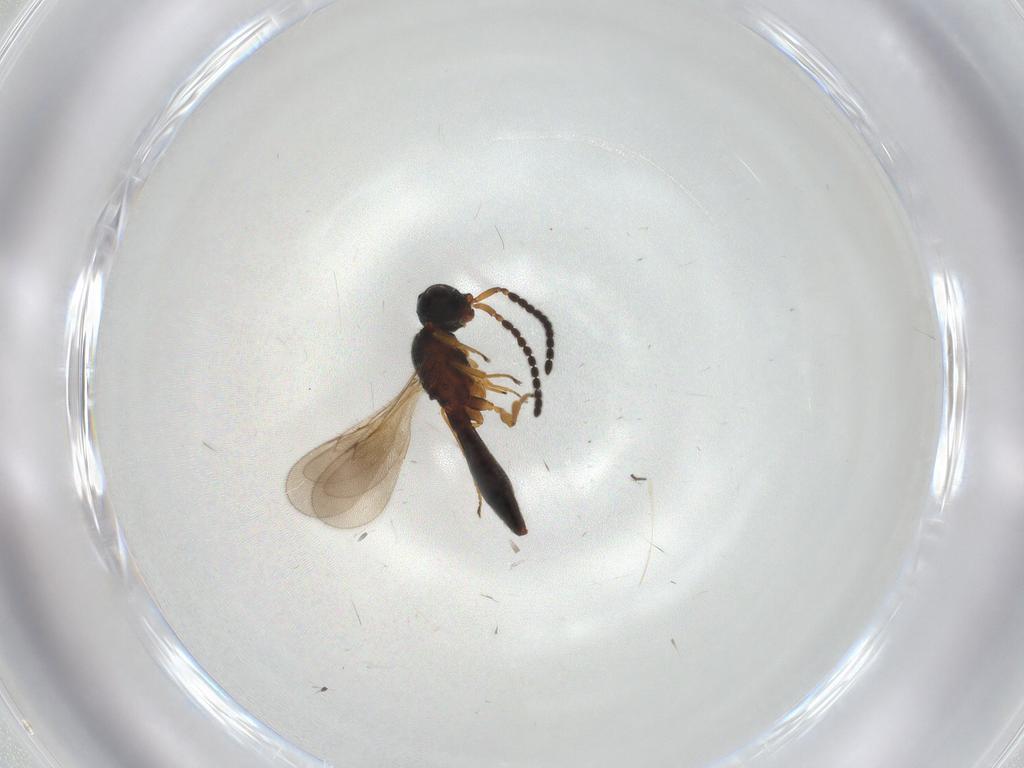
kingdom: Animalia
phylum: Arthropoda
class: Insecta
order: Hymenoptera
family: Scelionidae
